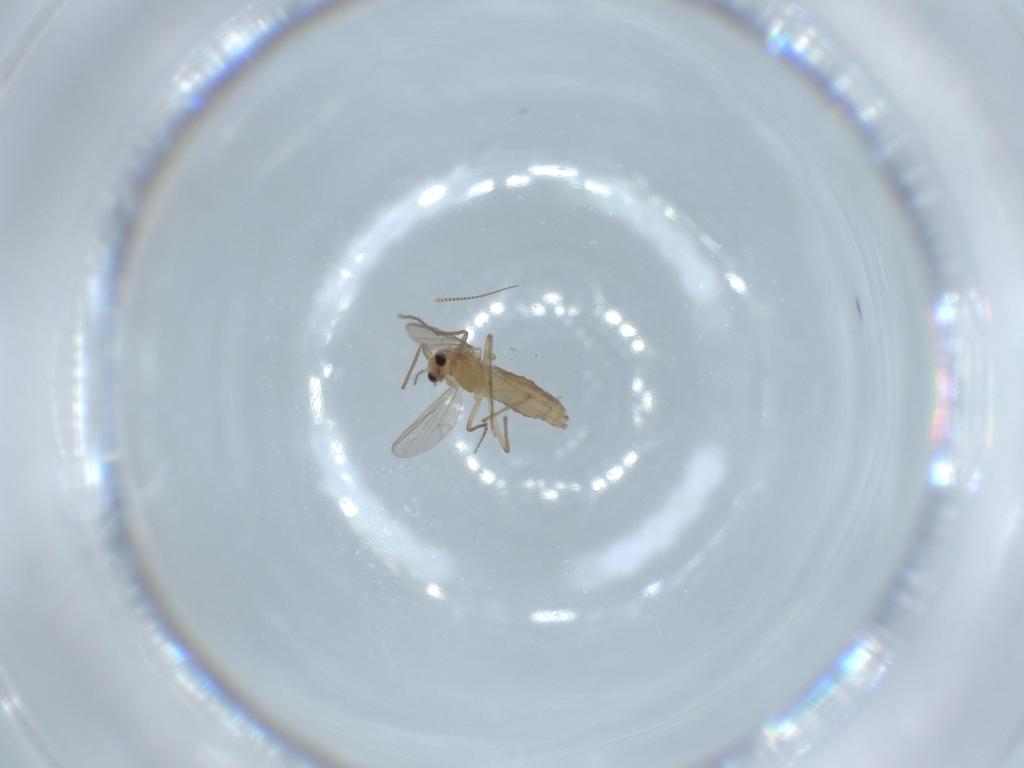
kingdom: Animalia
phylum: Arthropoda
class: Insecta
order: Diptera
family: Chironomidae
